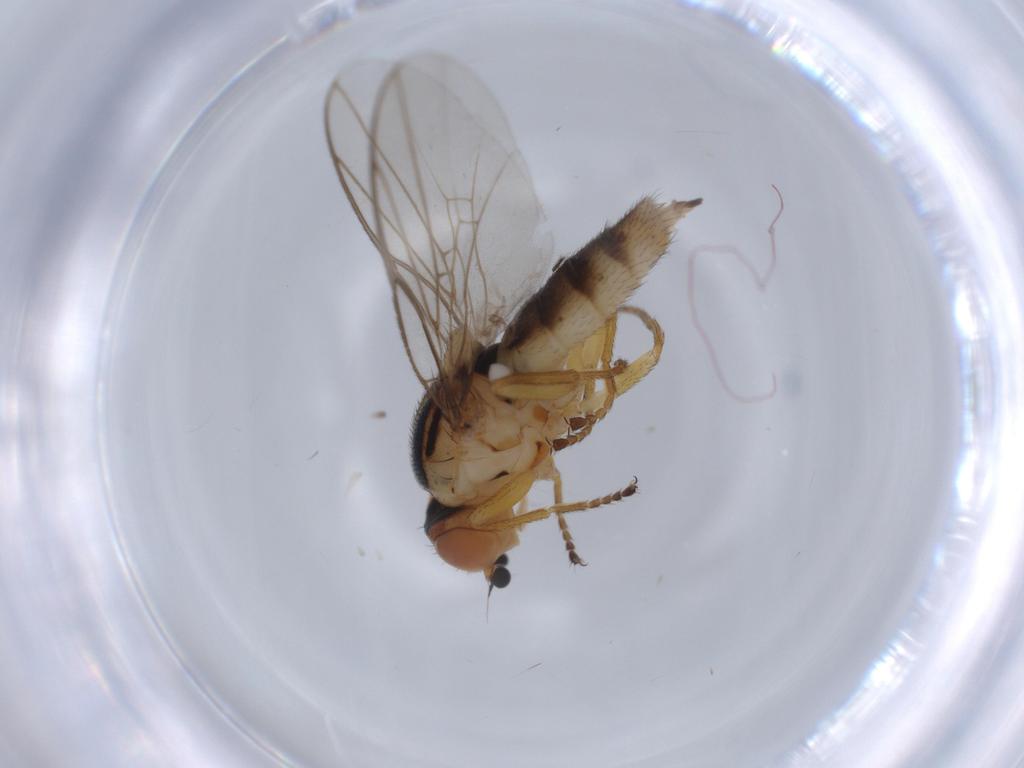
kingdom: Animalia
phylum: Arthropoda
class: Insecta
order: Diptera
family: Chloropidae
